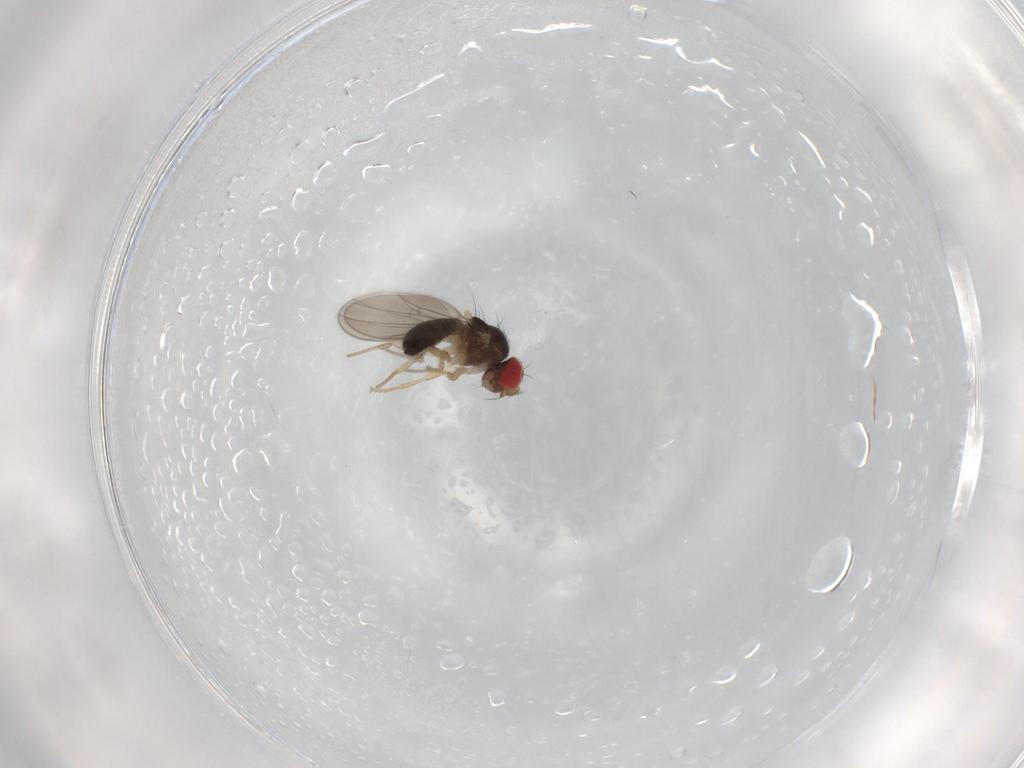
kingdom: Animalia
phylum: Arthropoda
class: Insecta
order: Diptera
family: Drosophilidae
